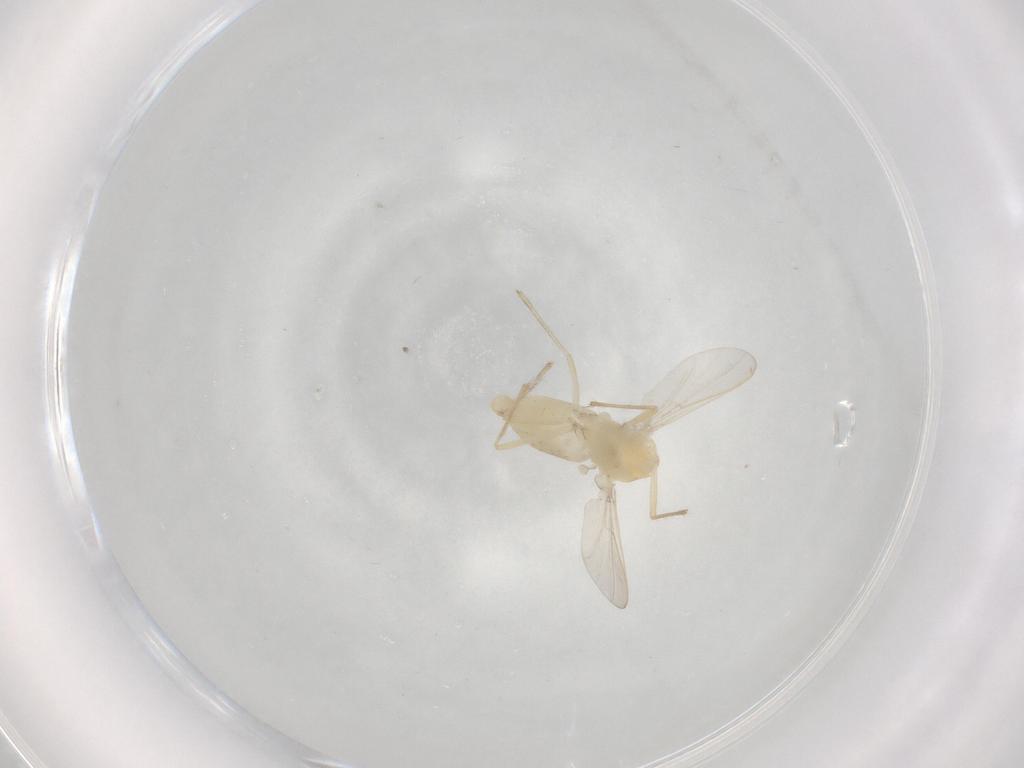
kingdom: Animalia
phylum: Arthropoda
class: Insecta
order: Diptera
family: Chironomidae
